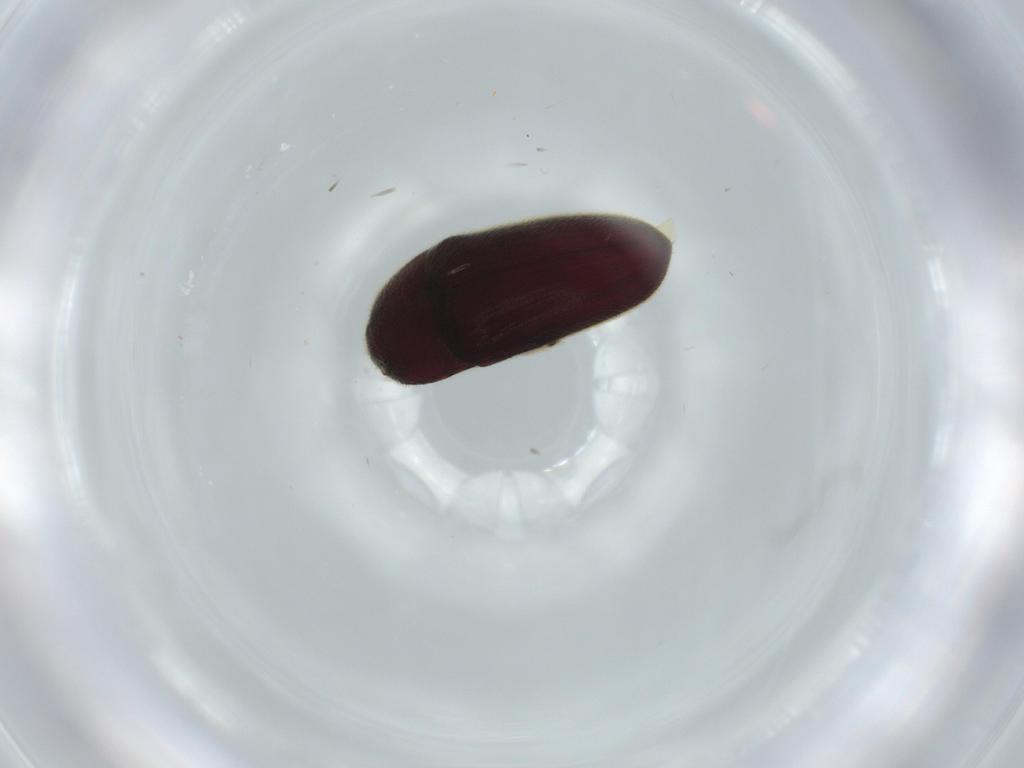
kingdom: Animalia
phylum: Arthropoda
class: Insecta
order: Coleoptera
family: Throscidae
